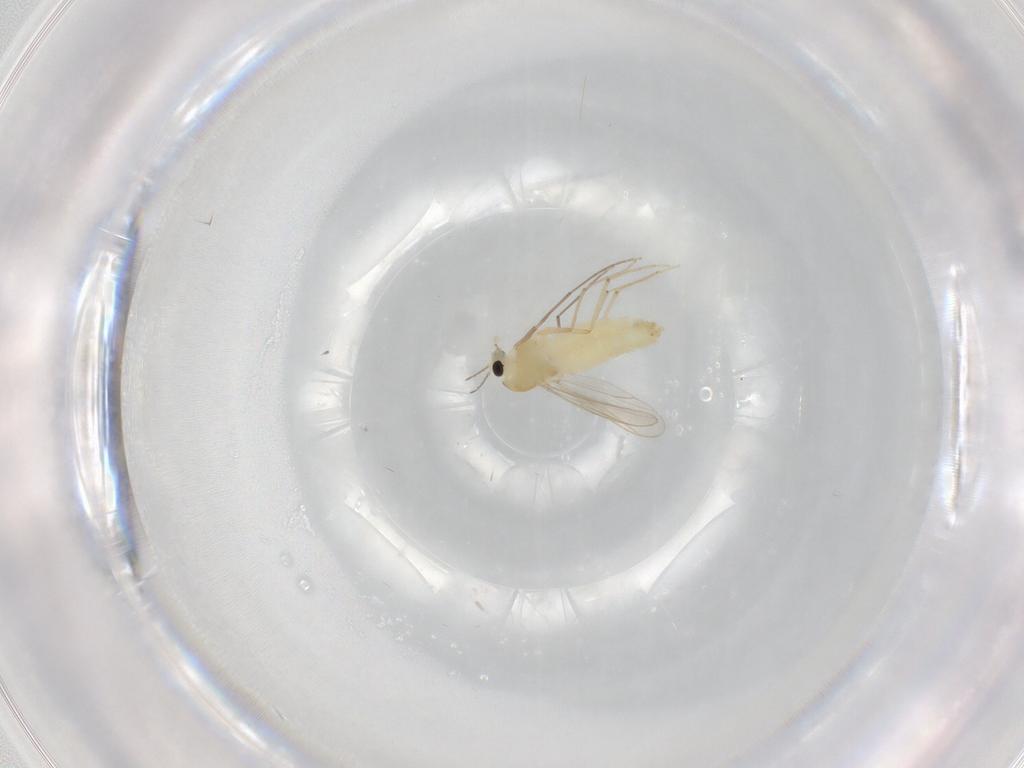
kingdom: Animalia
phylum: Arthropoda
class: Insecta
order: Diptera
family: Chironomidae
